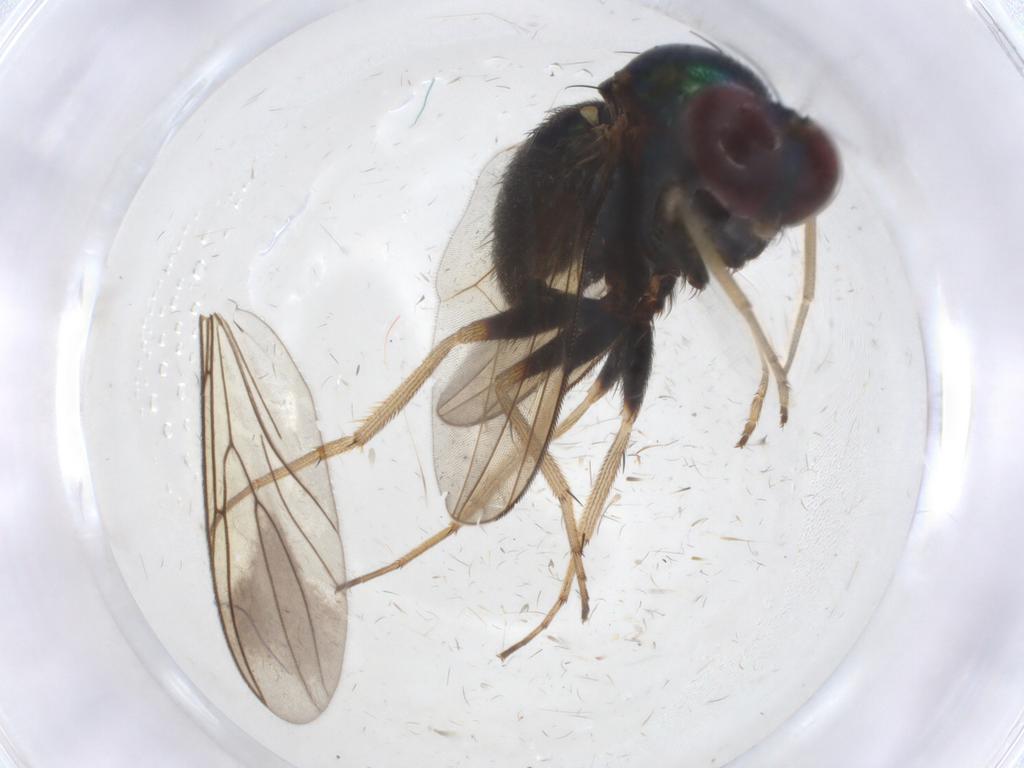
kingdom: Animalia
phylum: Arthropoda
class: Insecta
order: Diptera
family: Dolichopodidae
